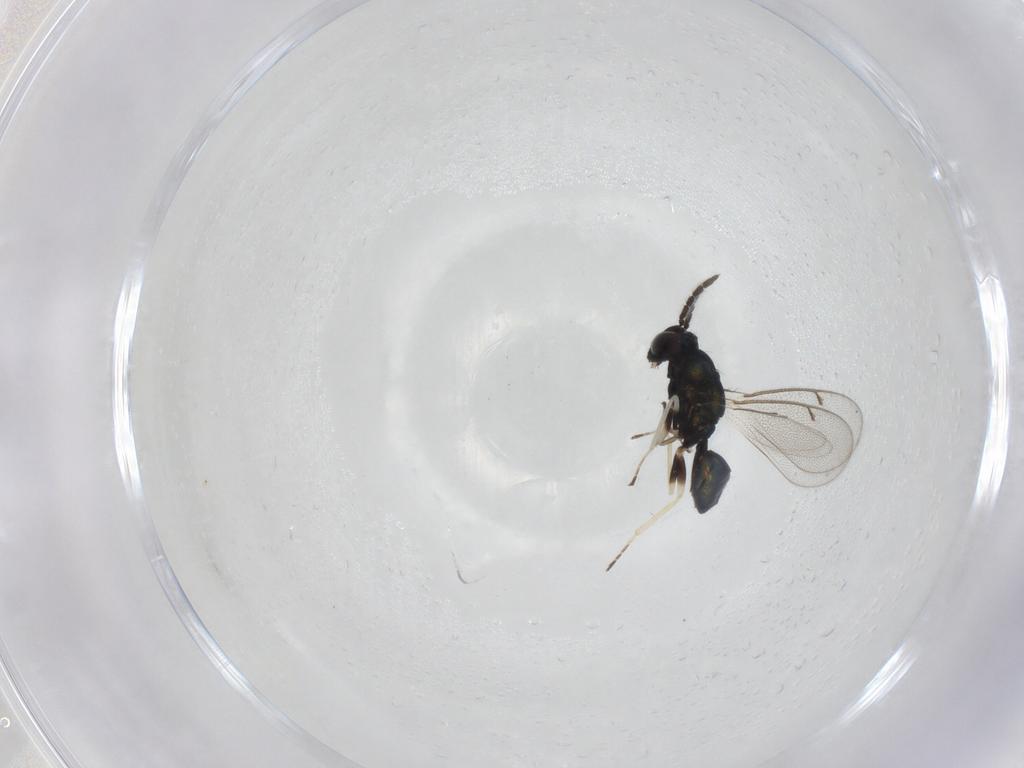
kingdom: Animalia
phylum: Arthropoda
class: Insecta
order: Hymenoptera
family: Eulophidae
